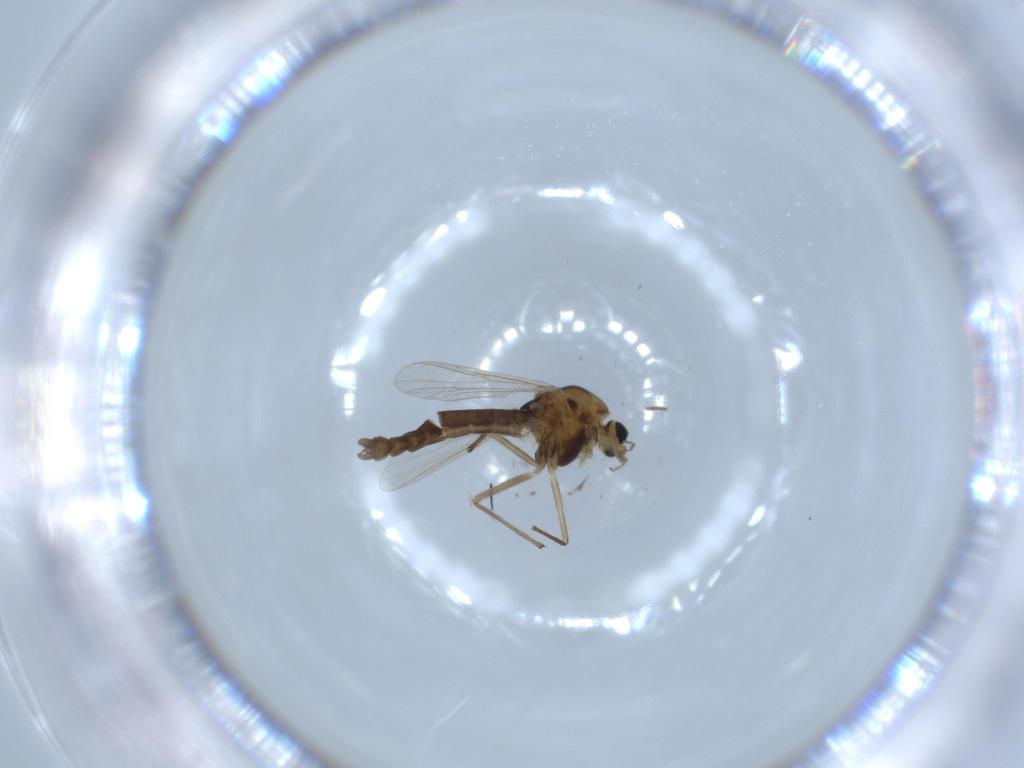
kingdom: Animalia
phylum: Arthropoda
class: Insecta
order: Diptera
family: Chironomidae
